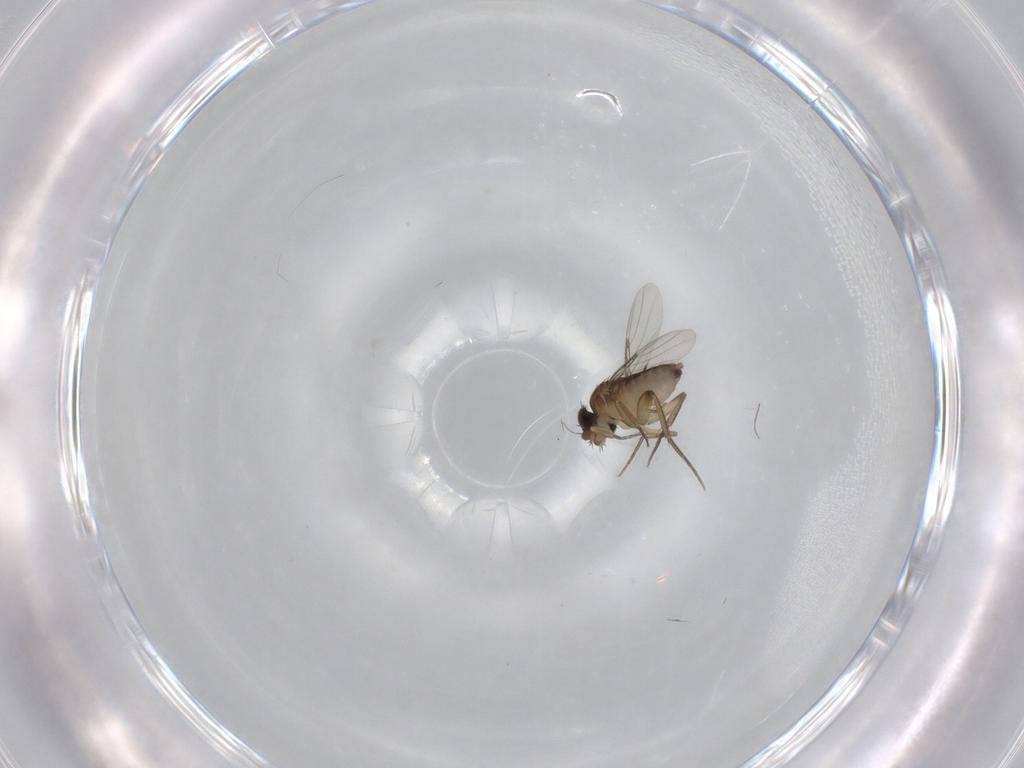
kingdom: Animalia
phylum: Arthropoda
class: Insecta
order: Diptera
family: Phoridae
